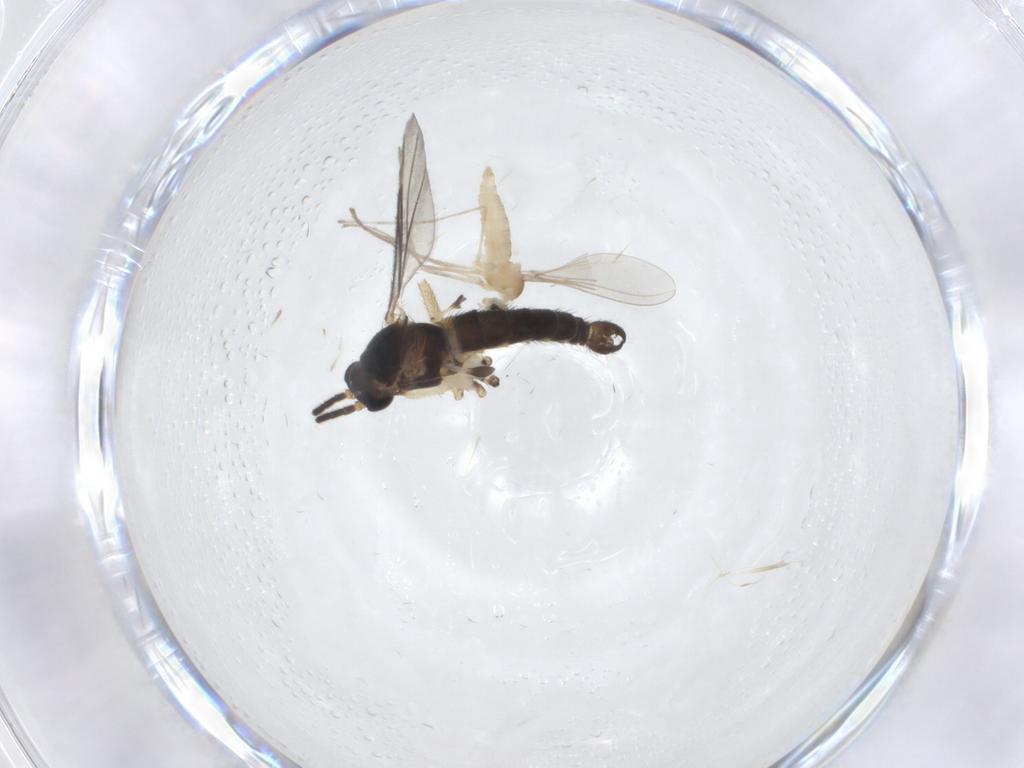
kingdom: Animalia
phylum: Arthropoda
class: Insecta
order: Diptera
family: Sciaridae
